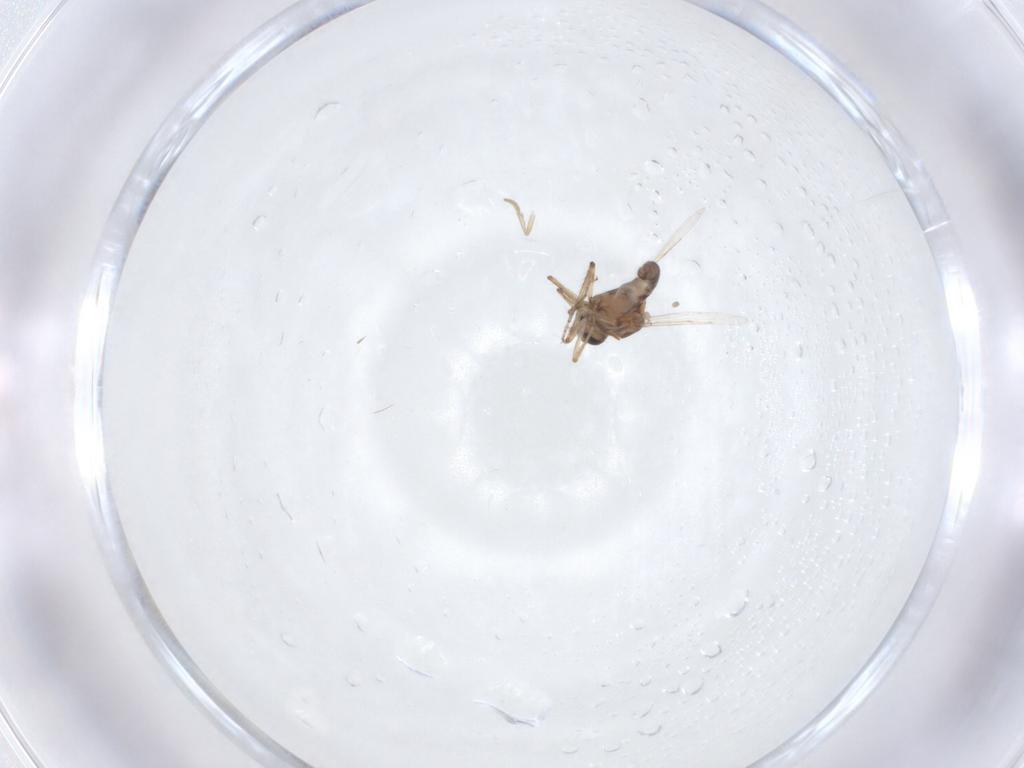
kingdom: Animalia
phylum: Arthropoda
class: Insecta
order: Diptera
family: Ceratopogonidae
